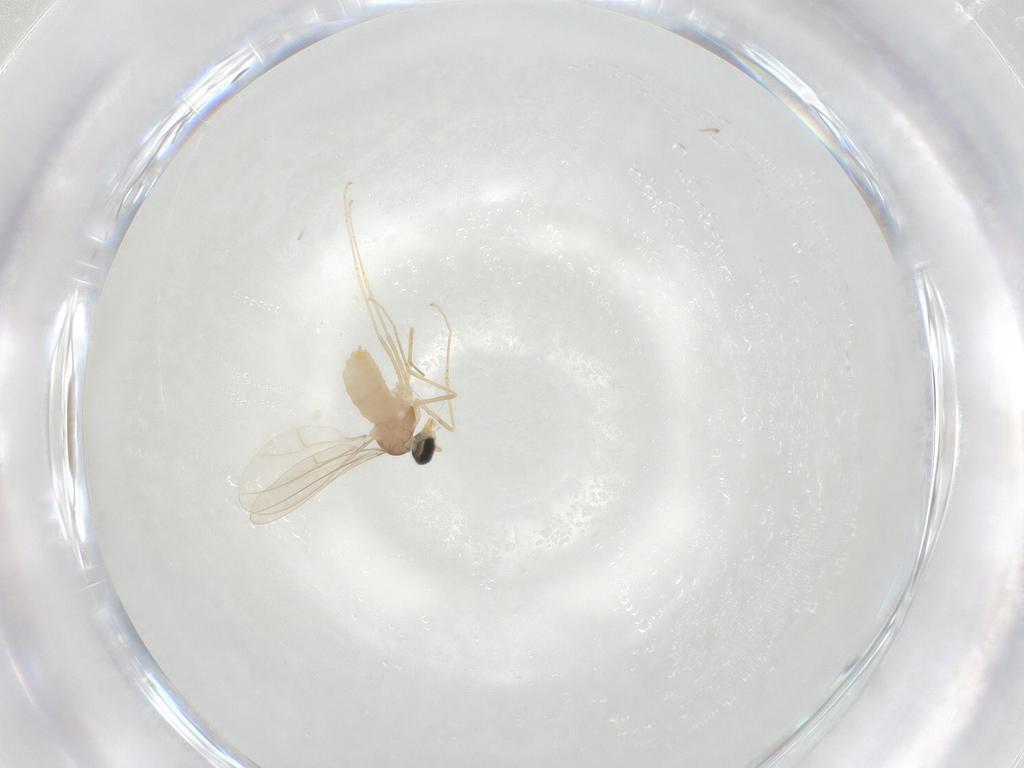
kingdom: Animalia
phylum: Arthropoda
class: Insecta
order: Diptera
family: Cecidomyiidae
